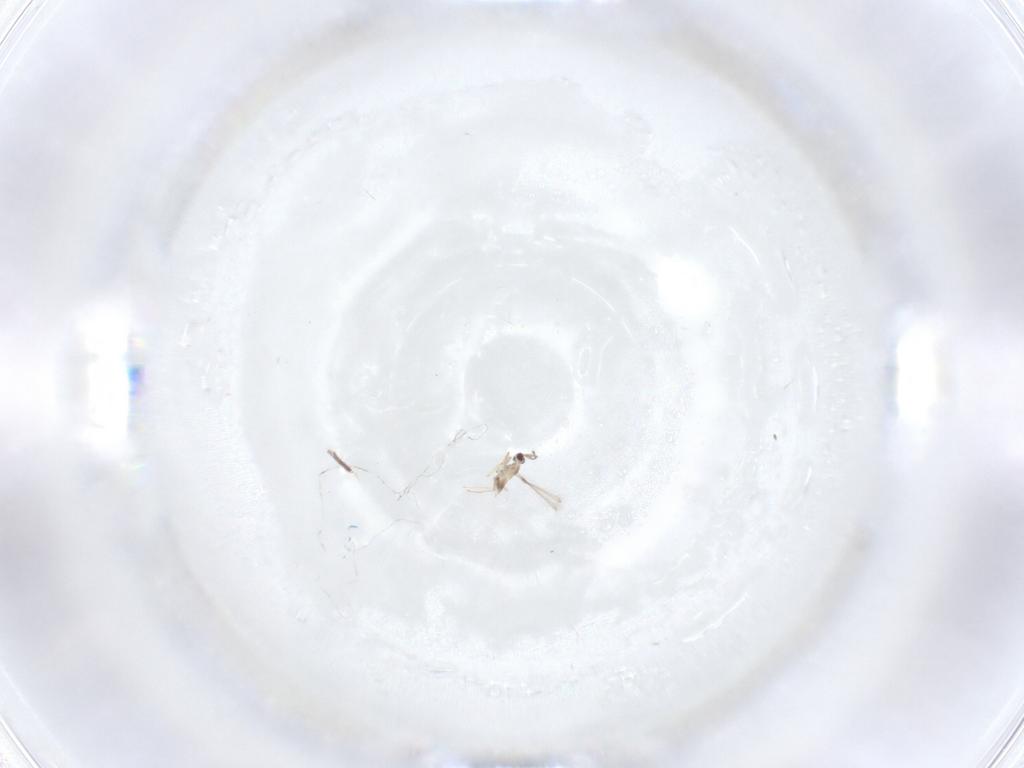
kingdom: Animalia
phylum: Arthropoda
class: Insecta
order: Hymenoptera
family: Mymaridae
